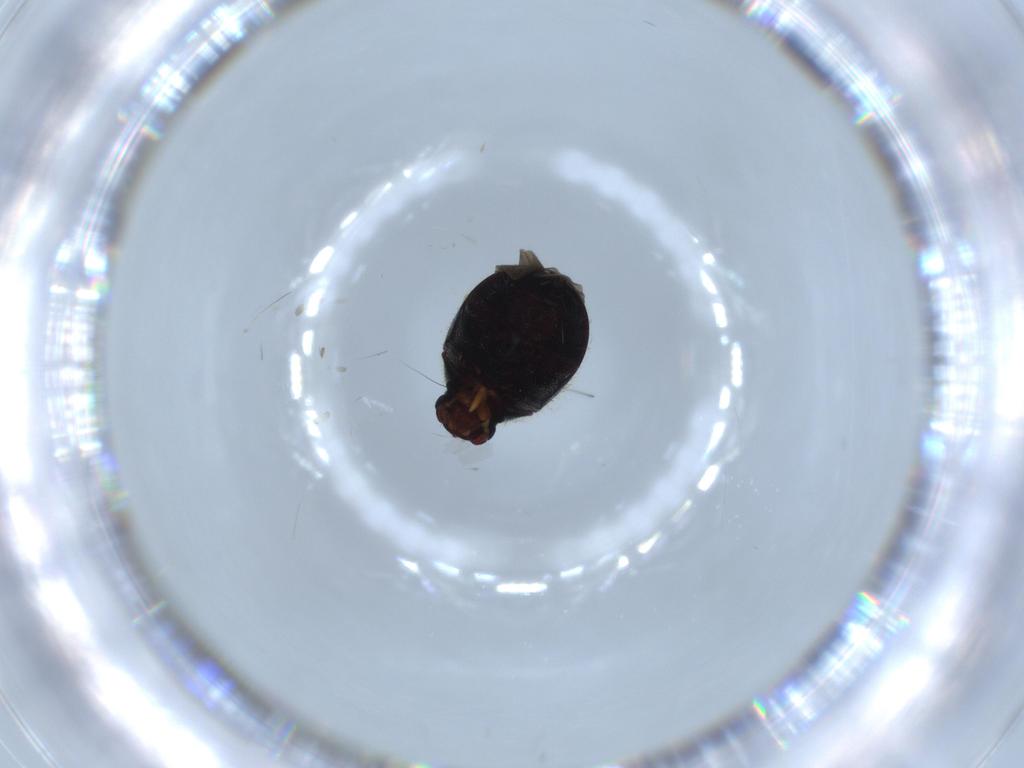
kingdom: Animalia
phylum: Arthropoda
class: Insecta
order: Coleoptera
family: Ptinidae
